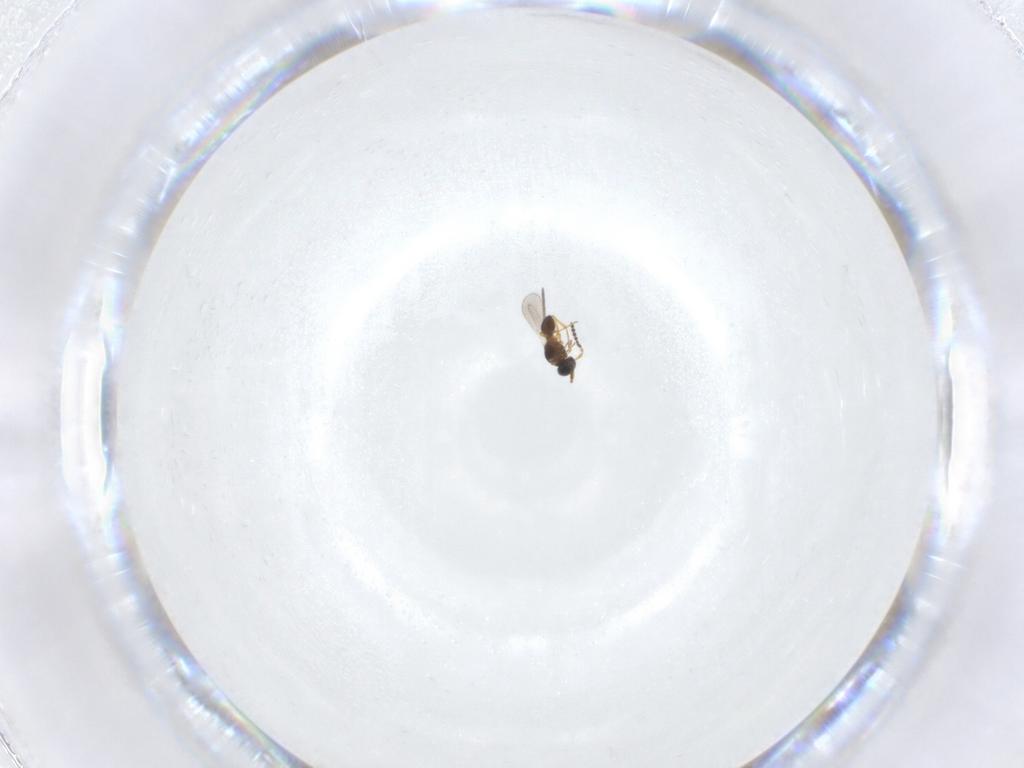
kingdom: Animalia
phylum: Arthropoda
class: Insecta
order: Hymenoptera
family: Platygastridae
